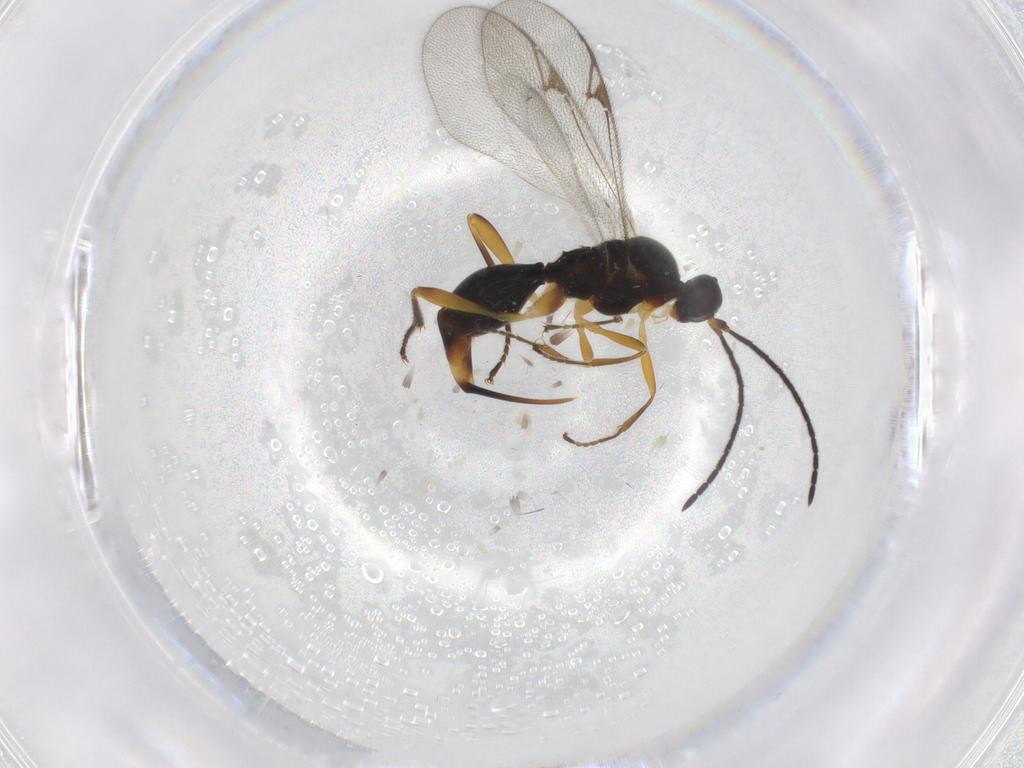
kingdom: Animalia
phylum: Arthropoda
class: Insecta
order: Hymenoptera
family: Proctotrupidae
